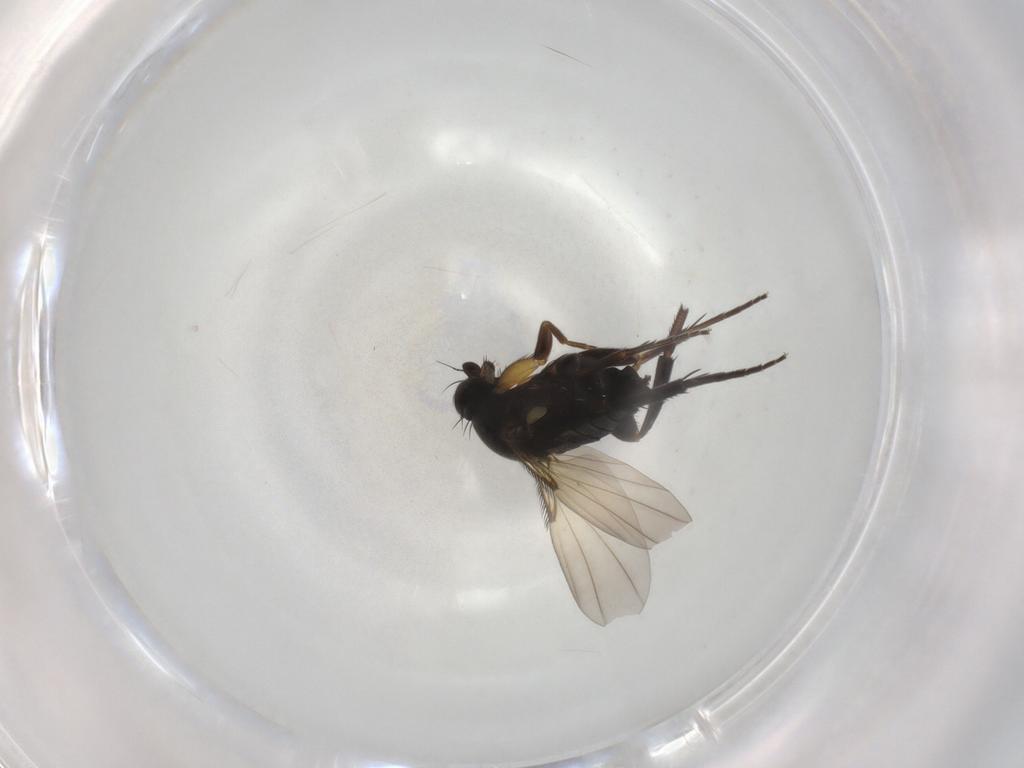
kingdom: Animalia
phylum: Arthropoda
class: Insecta
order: Diptera
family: Phoridae
